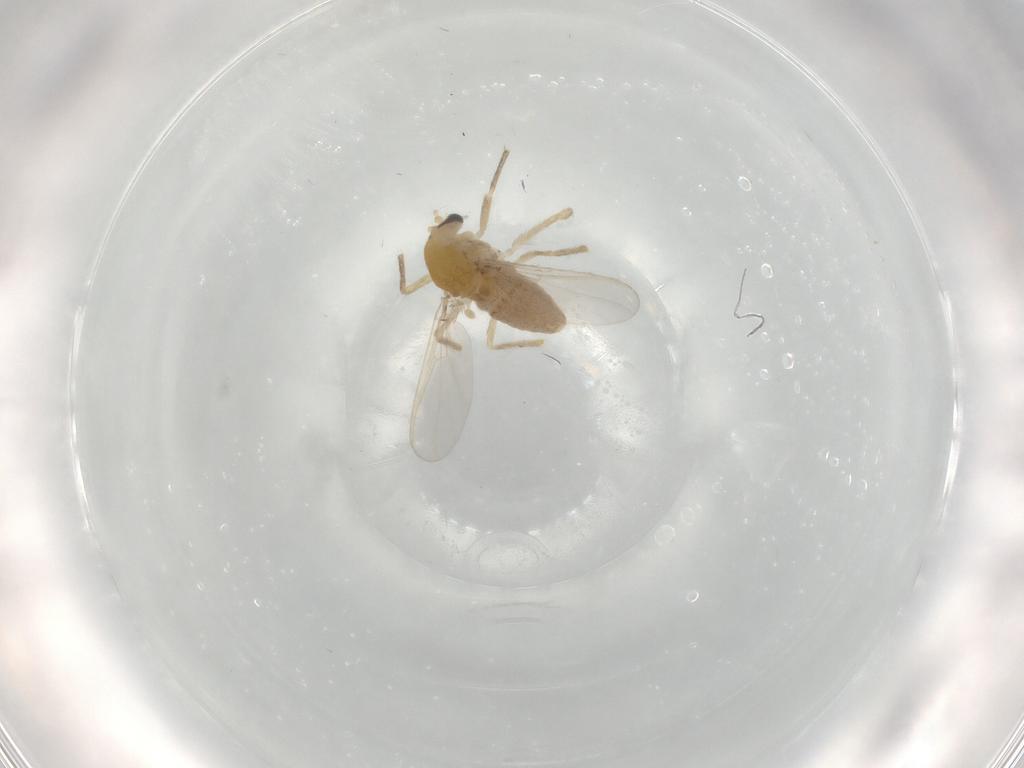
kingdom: Animalia
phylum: Arthropoda
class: Insecta
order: Diptera
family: Chironomidae
